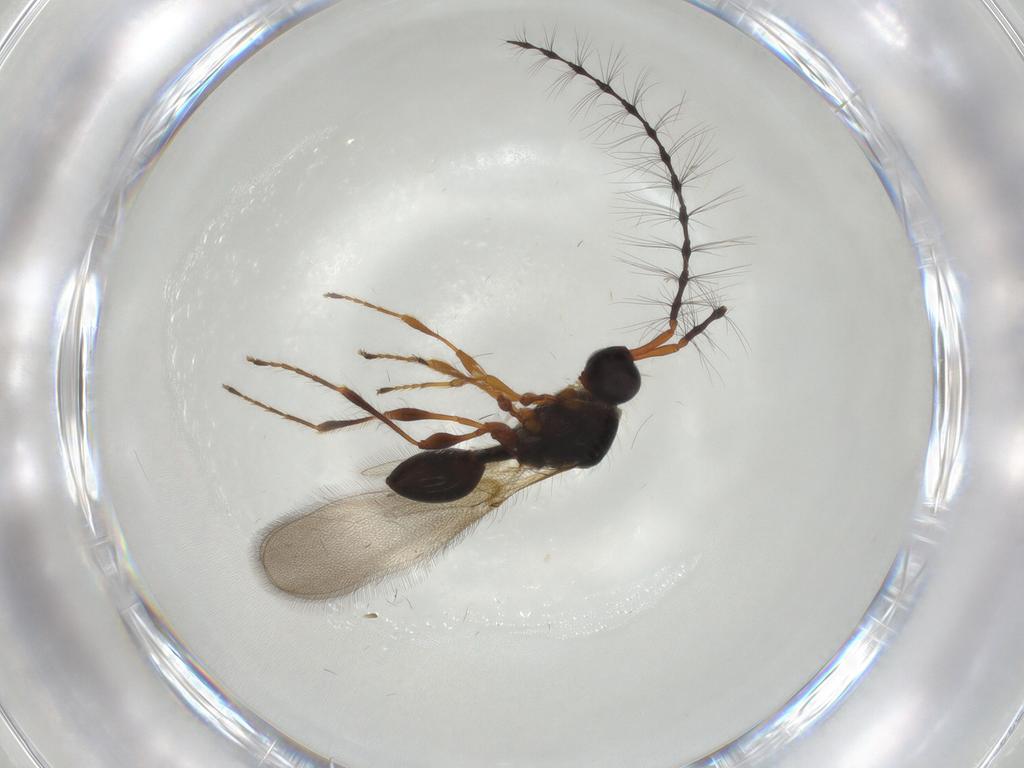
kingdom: Animalia
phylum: Arthropoda
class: Insecta
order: Hymenoptera
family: Diapriidae
